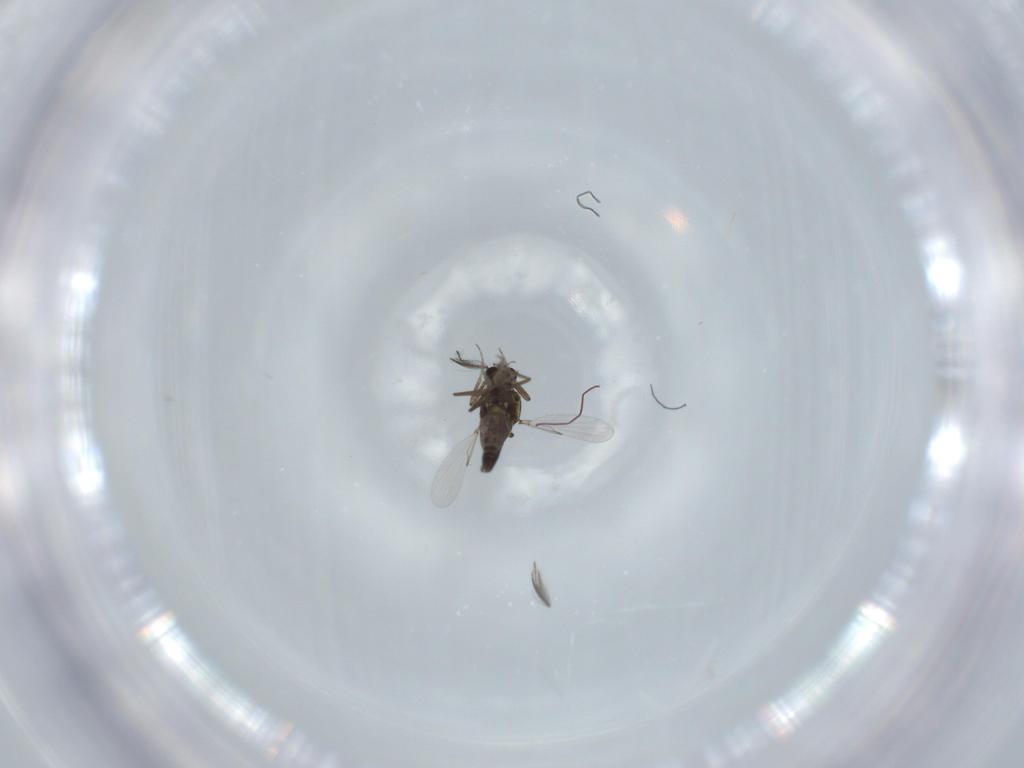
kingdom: Animalia
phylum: Arthropoda
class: Insecta
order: Diptera
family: Ceratopogonidae
